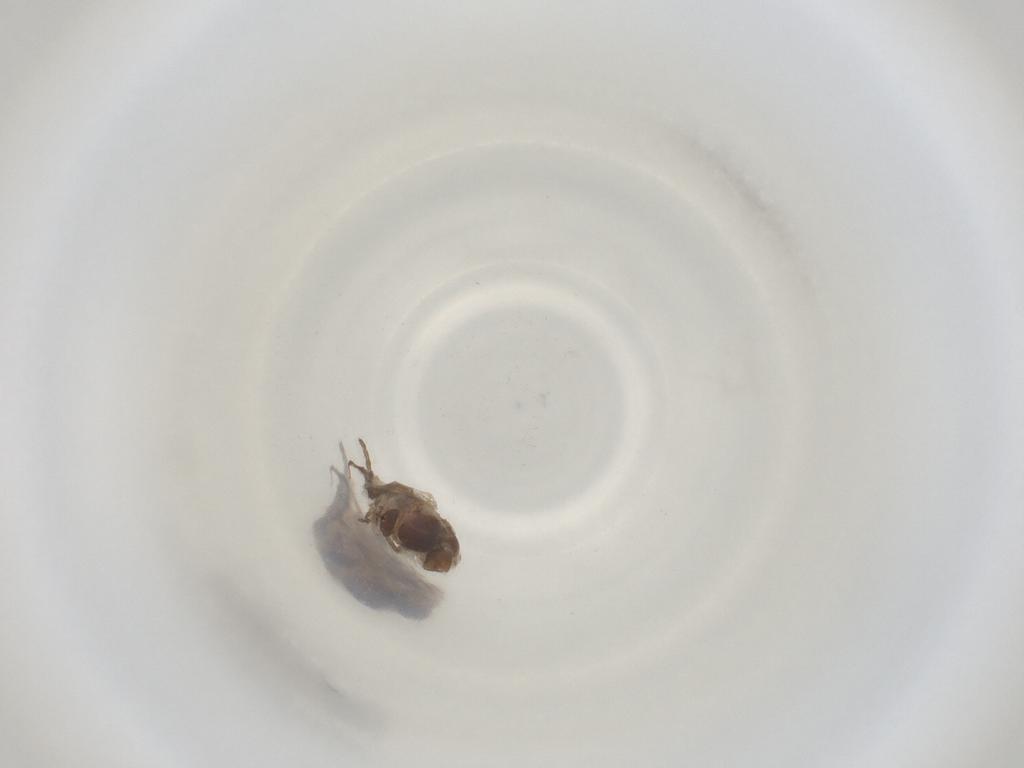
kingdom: Animalia
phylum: Arthropoda
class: Insecta
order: Diptera
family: Cecidomyiidae
